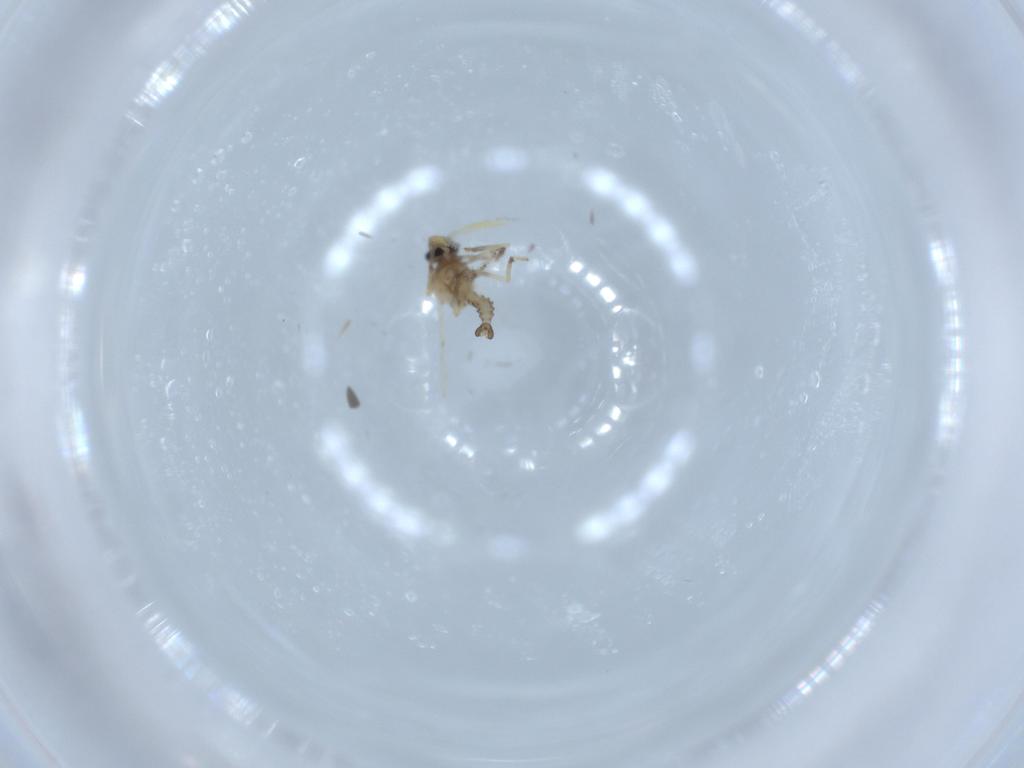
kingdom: Animalia
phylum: Arthropoda
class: Insecta
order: Diptera
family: Ceratopogonidae
